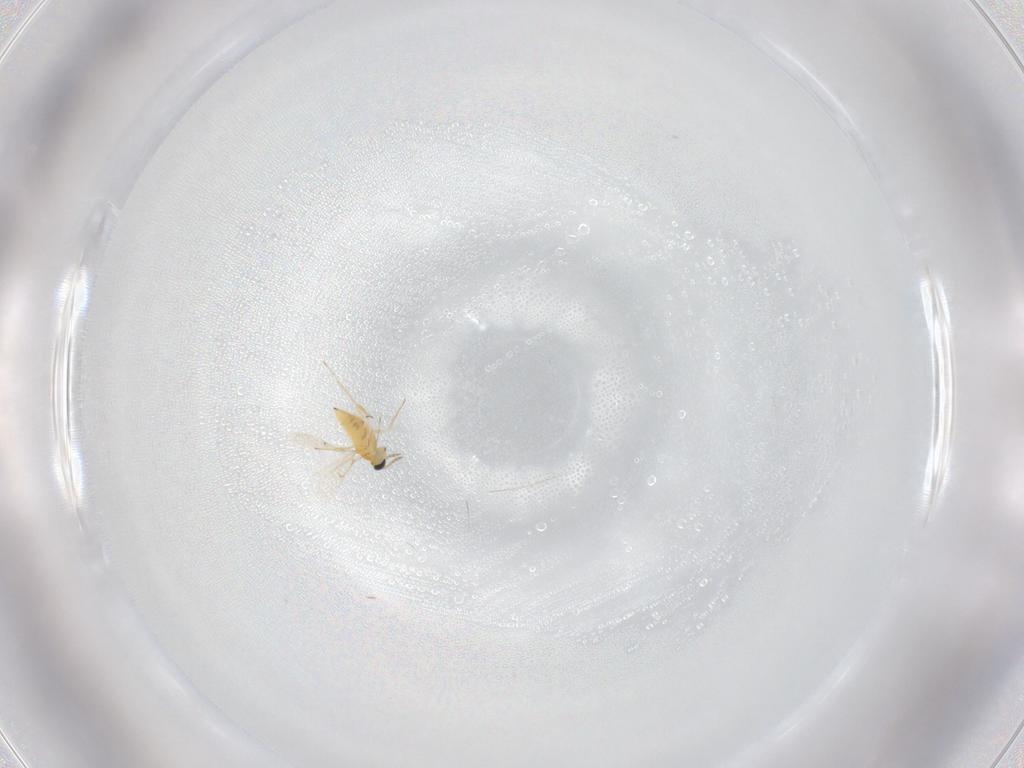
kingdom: Animalia
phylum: Arthropoda
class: Insecta
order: Hymenoptera
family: Trichogrammatidae
